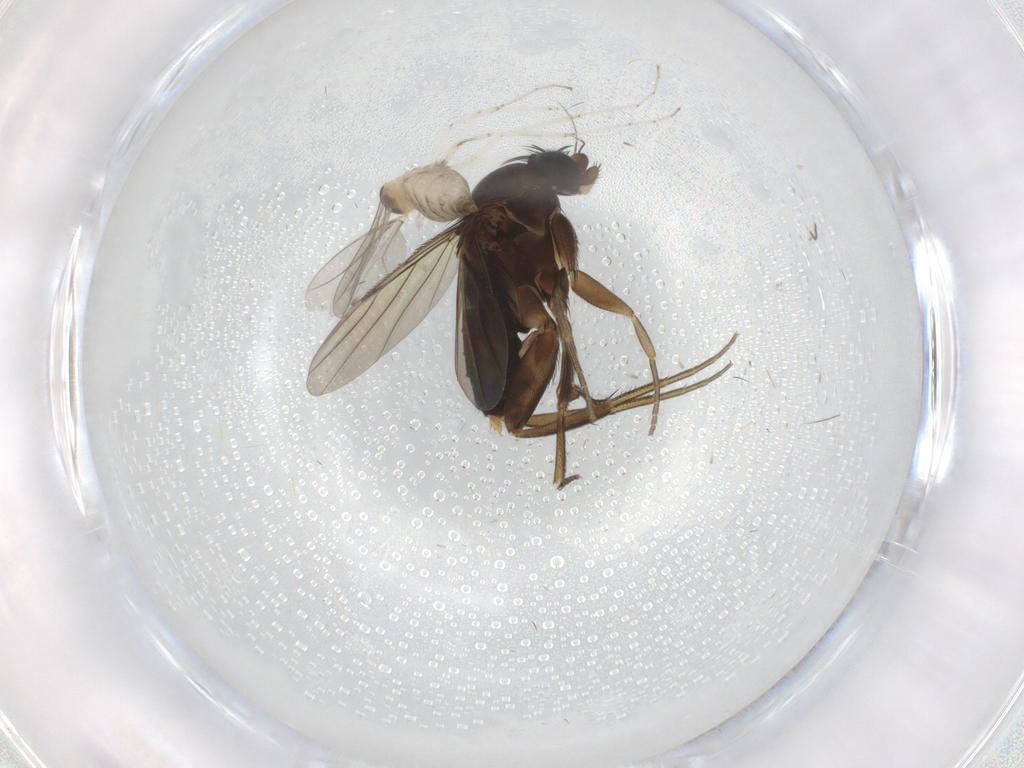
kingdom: Animalia
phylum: Arthropoda
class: Insecta
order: Diptera
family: Cecidomyiidae
